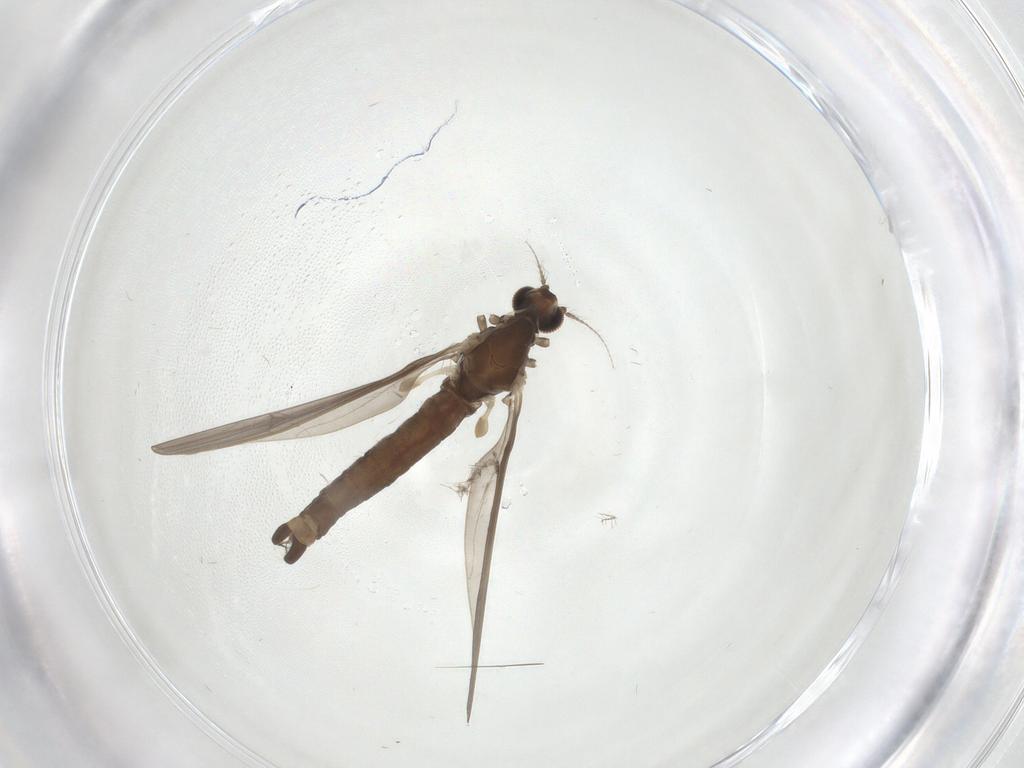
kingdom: Animalia
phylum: Arthropoda
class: Insecta
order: Diptera
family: Limoniidae
